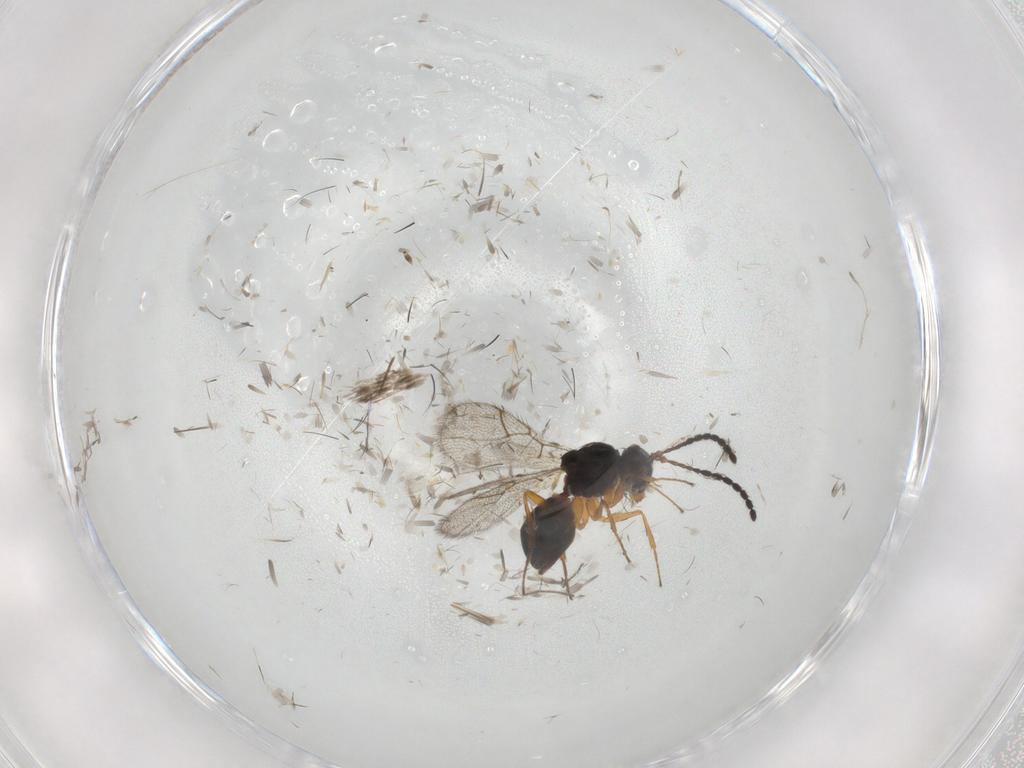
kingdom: Animalia
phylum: Arthropoda
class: Insecta
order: Hymenoptera
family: Figitidae
